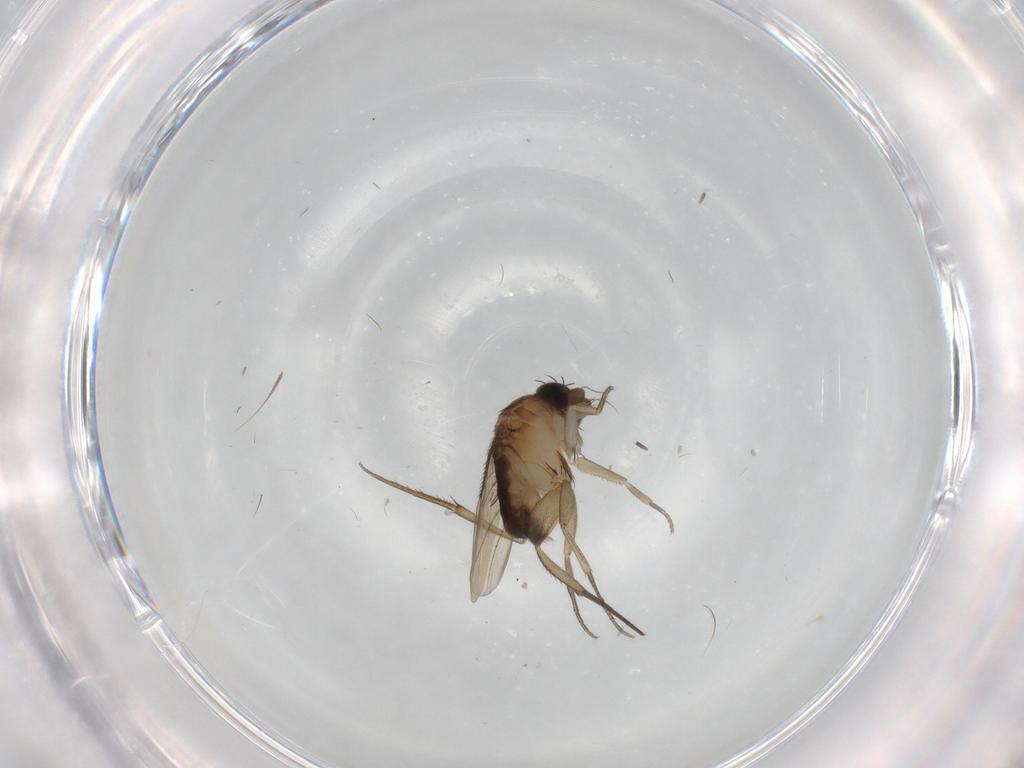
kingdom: Animalia
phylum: Arthropoda
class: Insecta
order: Diptera
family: Phoridae
